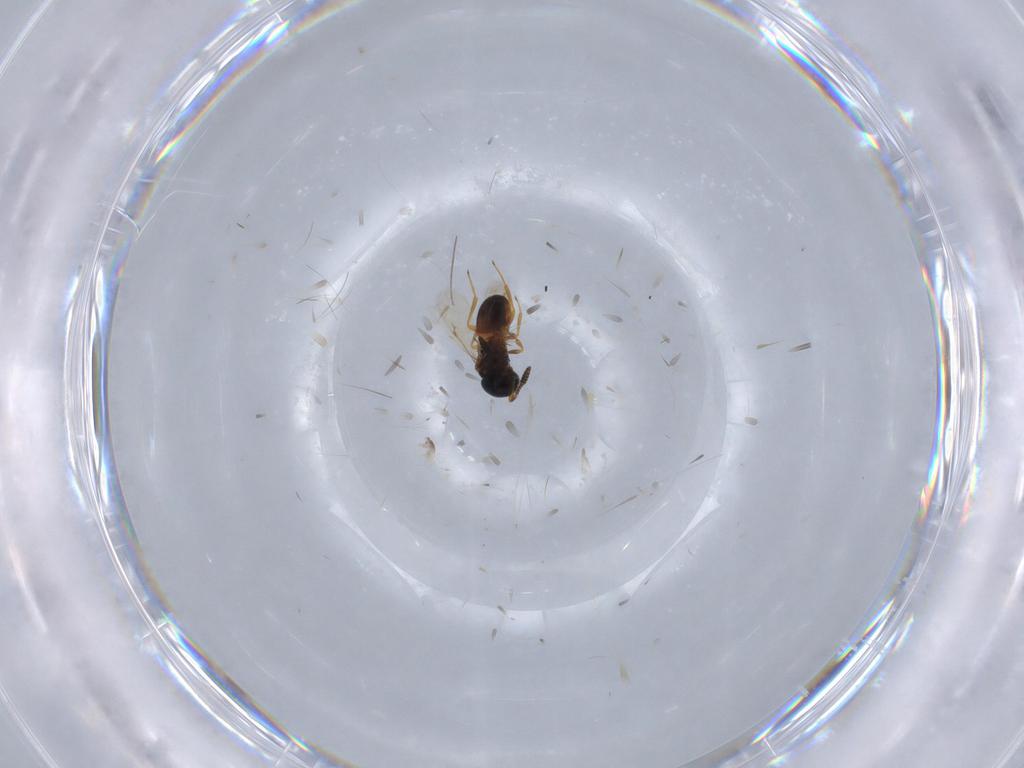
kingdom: Animalia
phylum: Arthropoda
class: Insecta
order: Hymenoptera
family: Scelionidae
